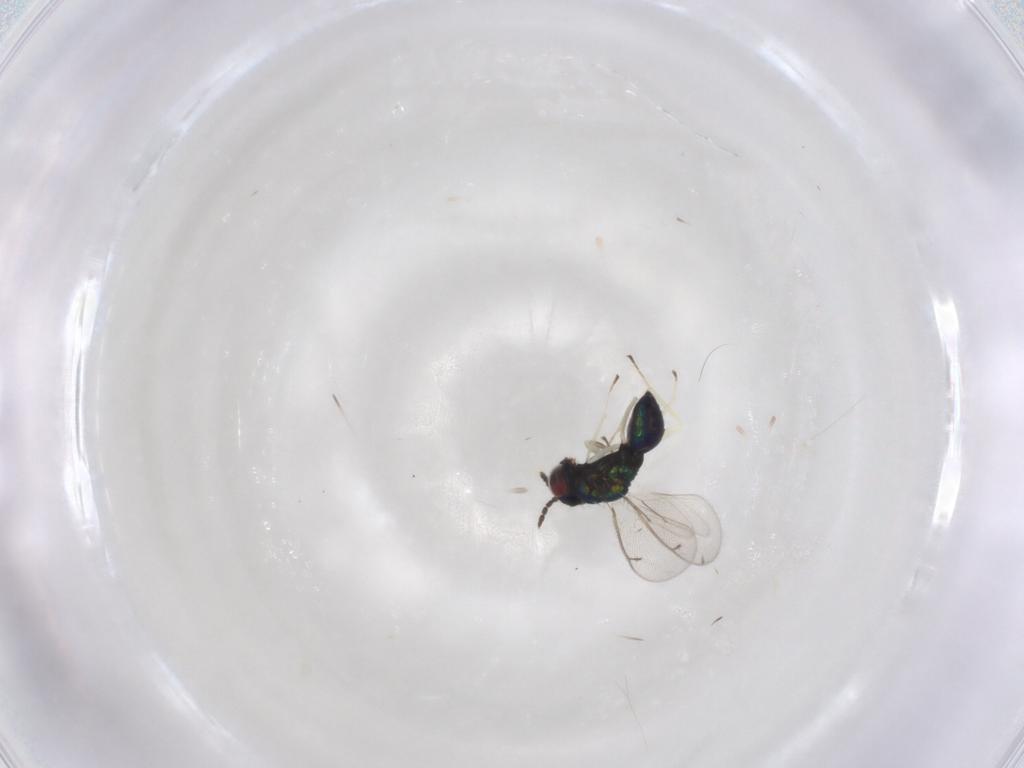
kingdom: Animalia
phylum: Arthropoda
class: Insecta
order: Hymenoptera
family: Eulophidae
